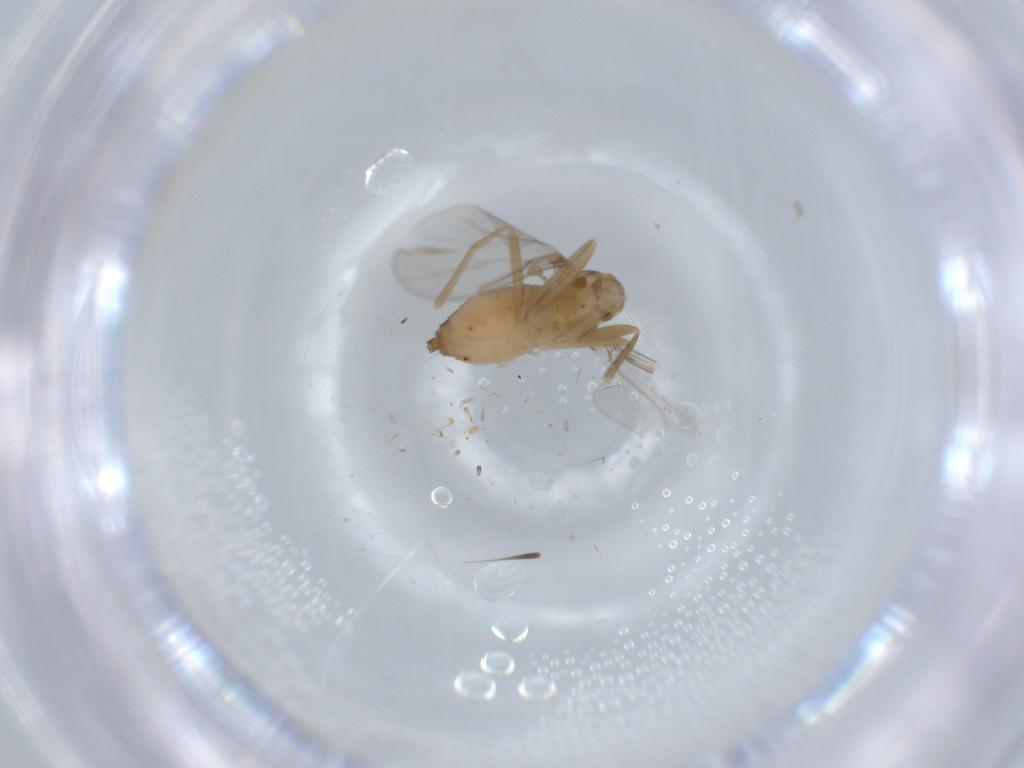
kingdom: Animalia
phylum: Arthropoda
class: Insecta
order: Diptera
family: Cecidomyiidae
